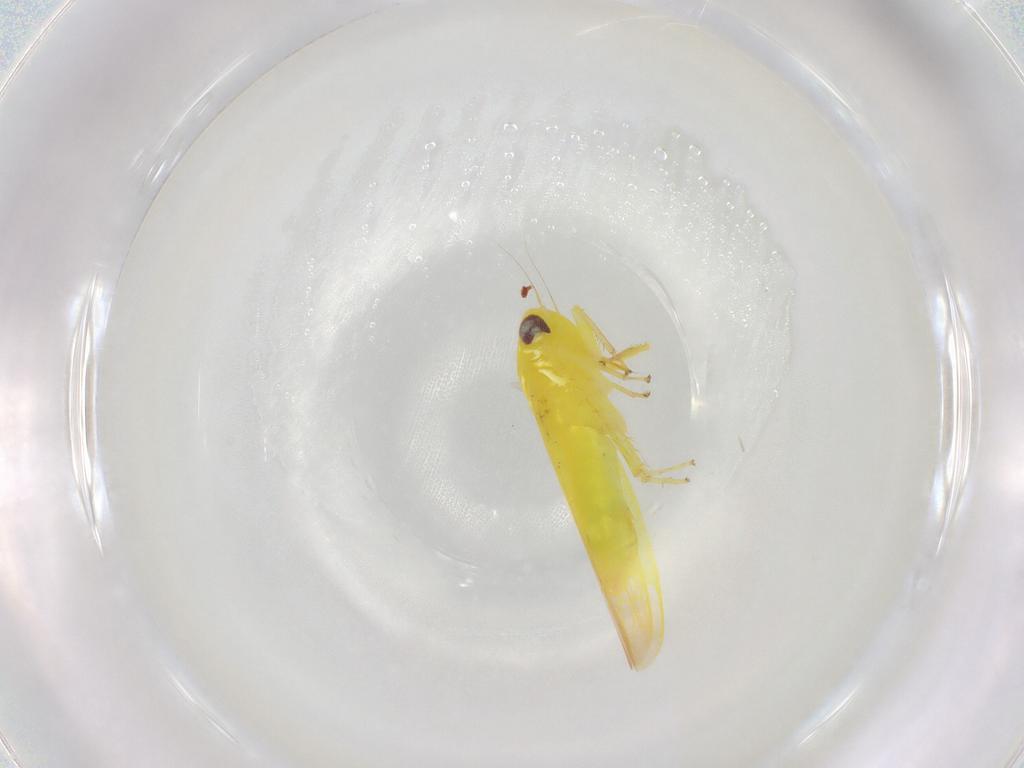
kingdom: Animalia
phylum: Arthropoda
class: Insecta
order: Hemiptera
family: Cicadellidae
